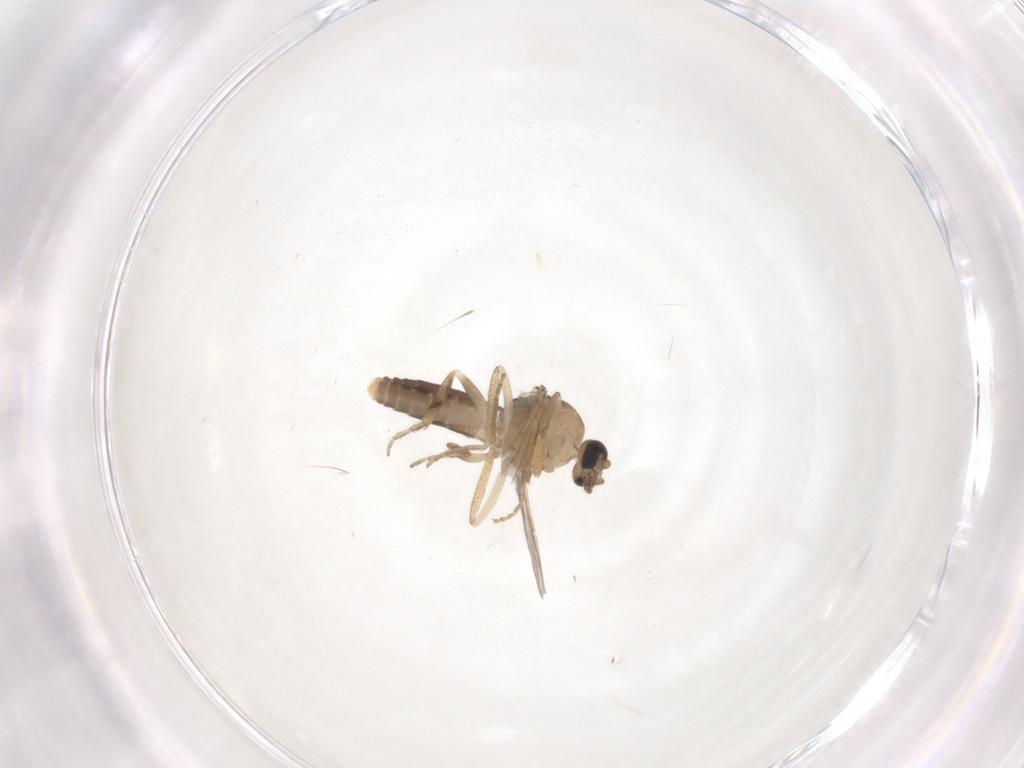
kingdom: Animalia
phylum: Arthropoda
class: Insecta
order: Diptera
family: Ceratopogonidae
